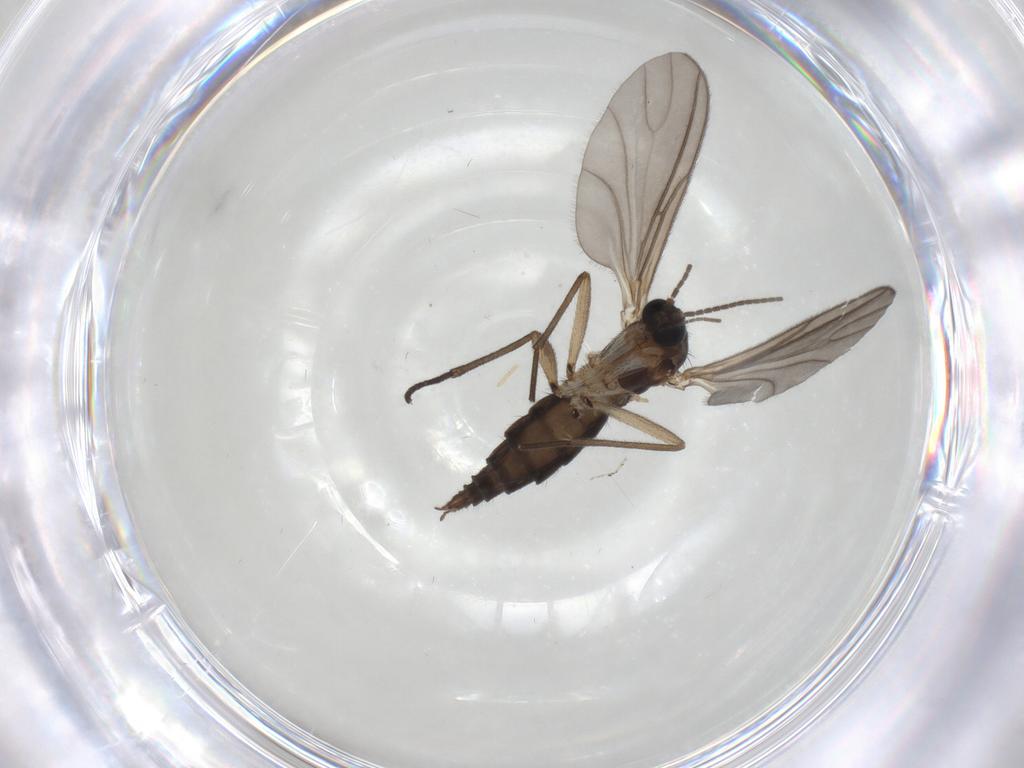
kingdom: Animalia
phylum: Arthropoda
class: Insecta
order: Diptera
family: Sciaridae
